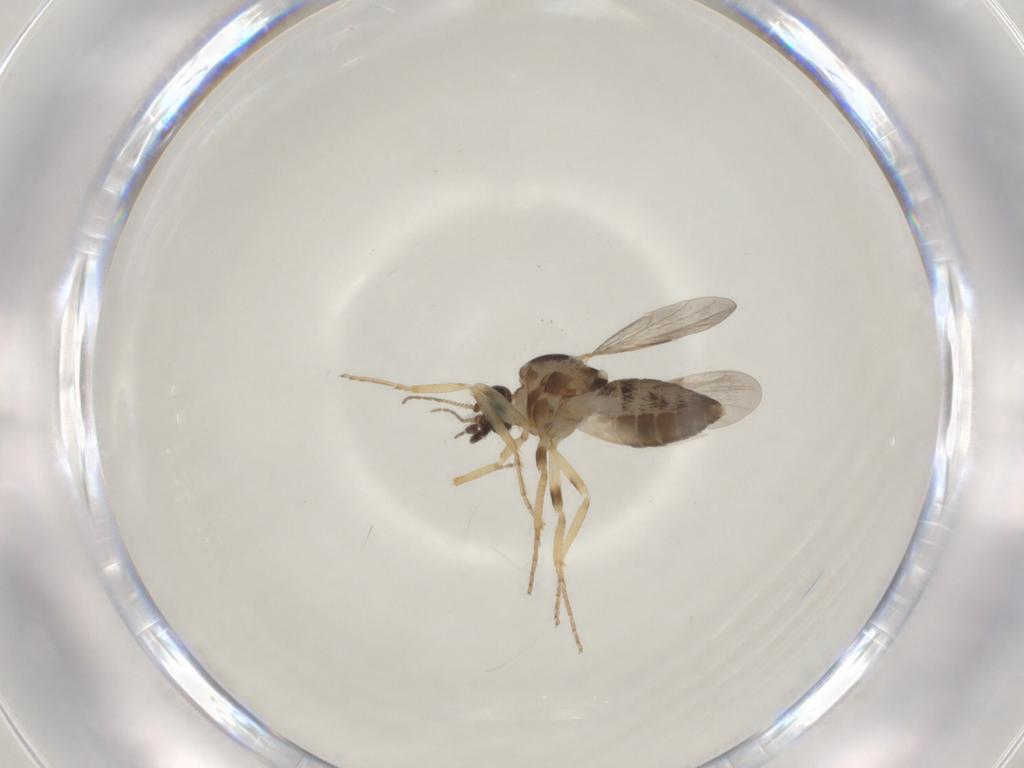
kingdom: Animalia
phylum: Arthropoda
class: Insecta
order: Diptera
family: Ceratopogonidae
